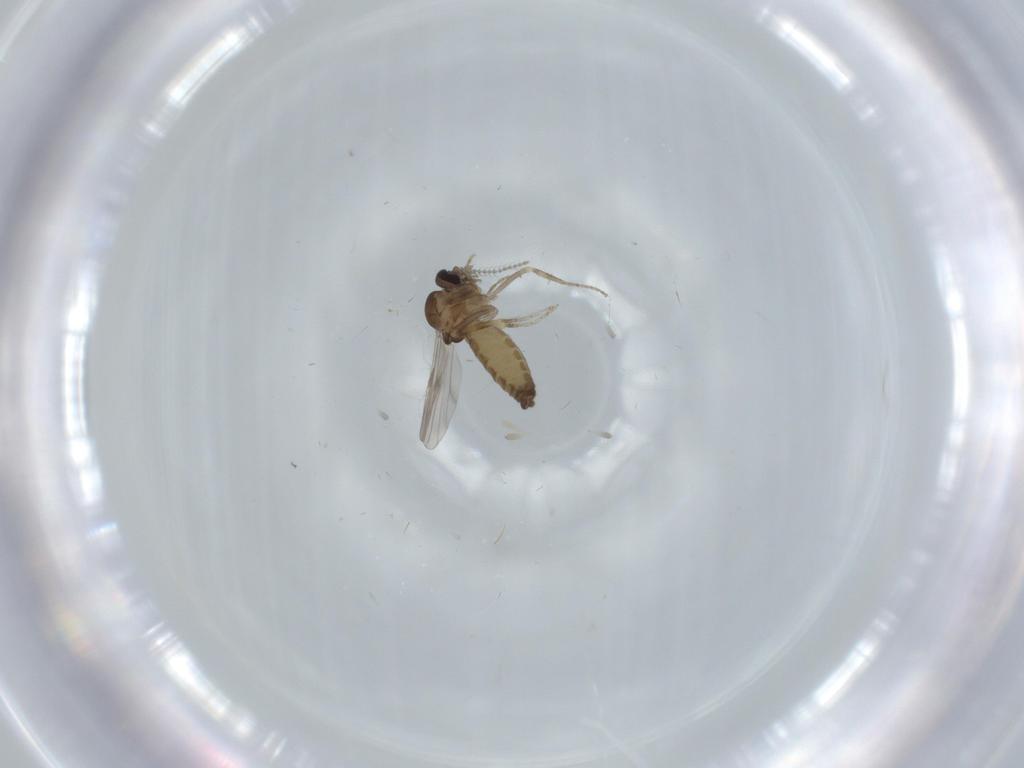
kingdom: Animalia
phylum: Arthropoda
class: Insecta
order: Diptera
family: Ceratopogonidae
